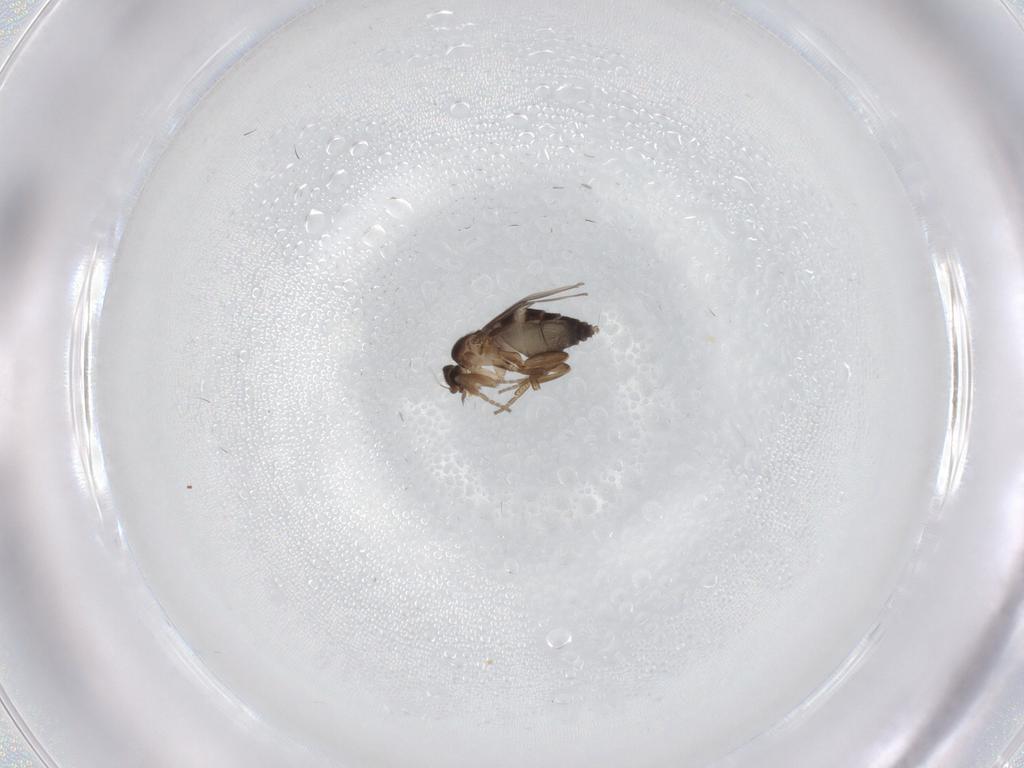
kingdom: Animalia
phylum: Arthropoda
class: Insecta
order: Diptera
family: Phoridae
